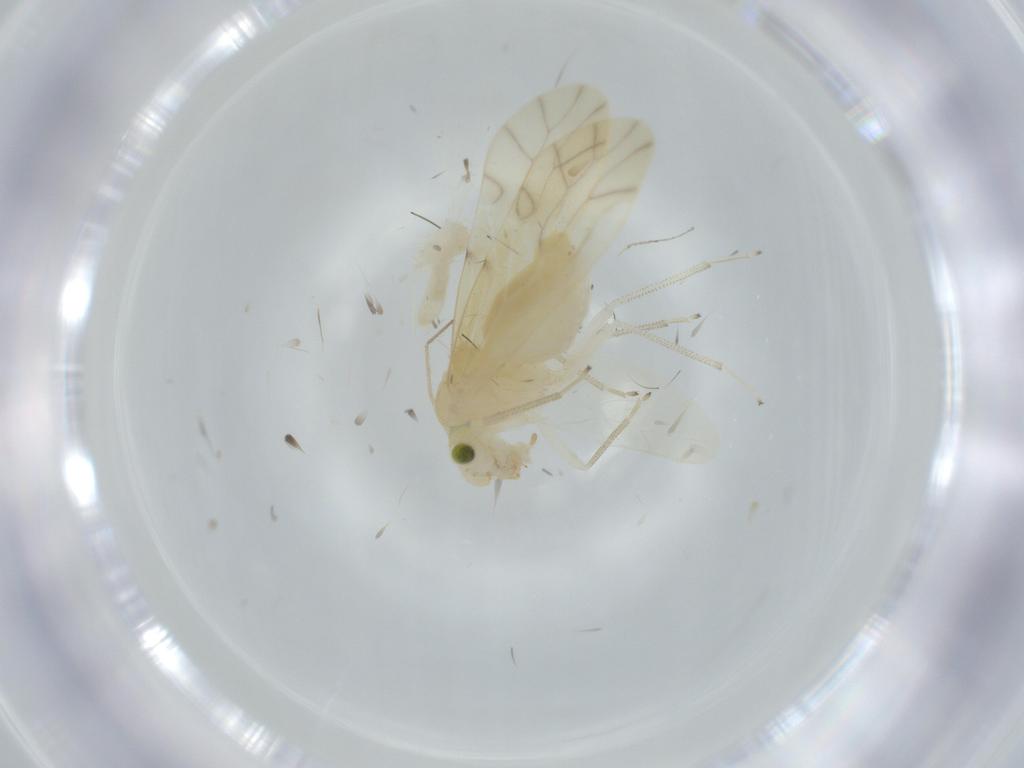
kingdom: Animalia
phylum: Arthropoda
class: Insecta
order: Psocodea
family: Caeciliusidae
